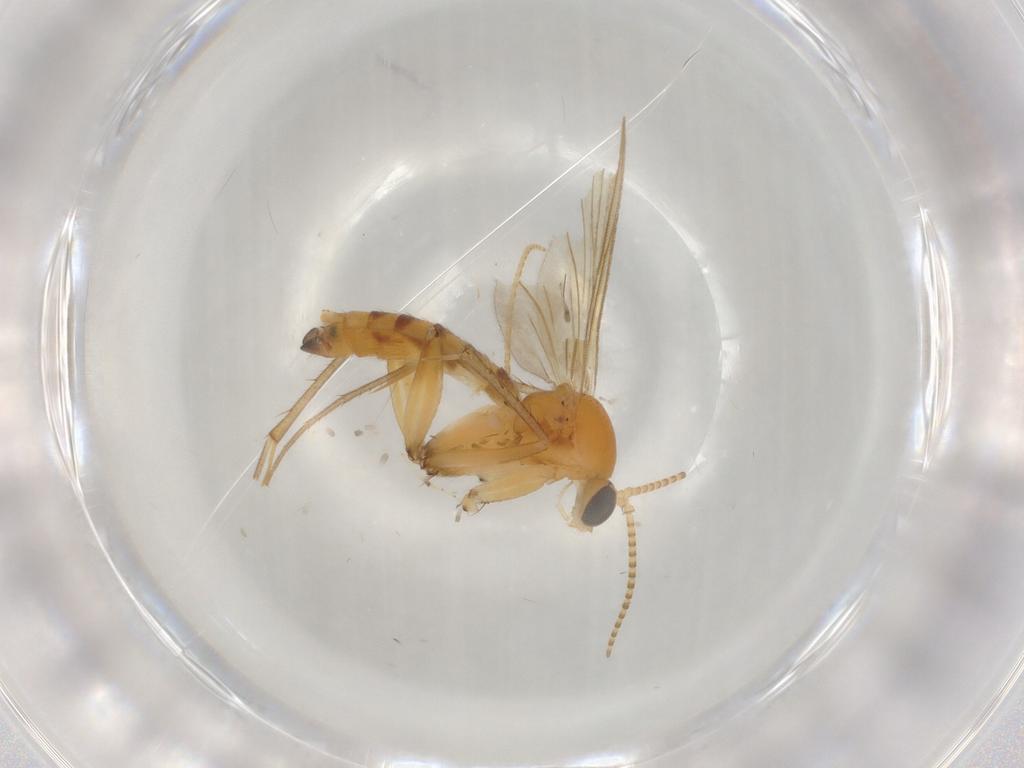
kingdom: Animalia
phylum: Arthropoda
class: Insecta
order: Diptera
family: Mycetophilidae
